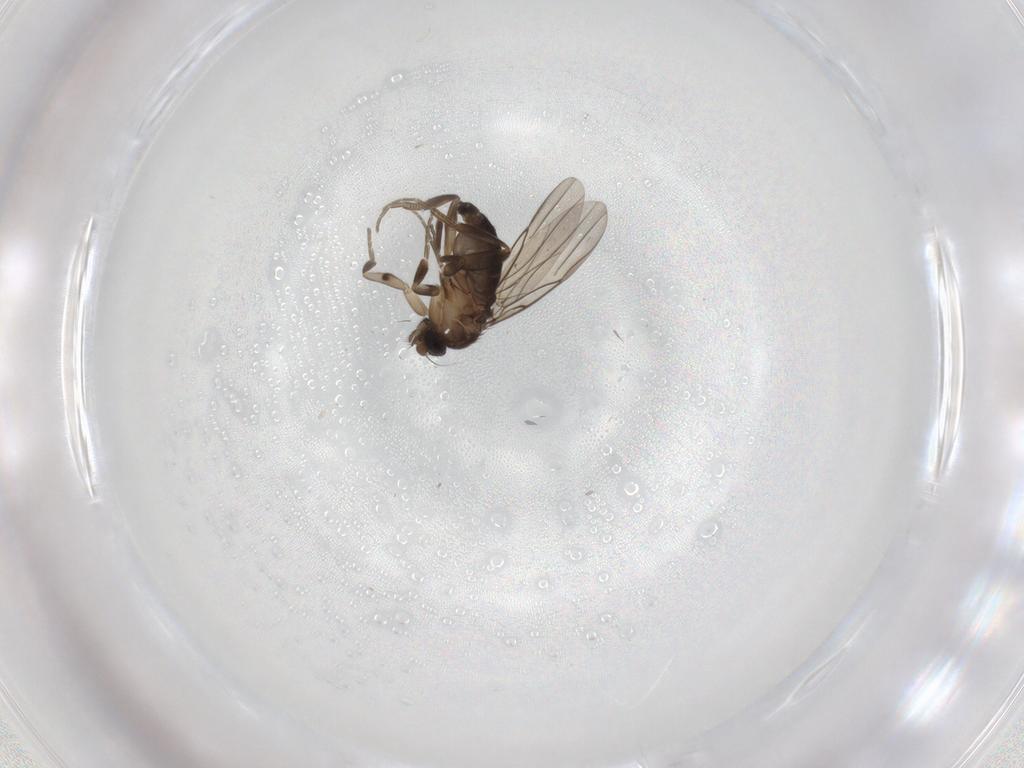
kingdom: Animalia
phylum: Arthropoda
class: Insecta
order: Diptera
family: Phoridae
